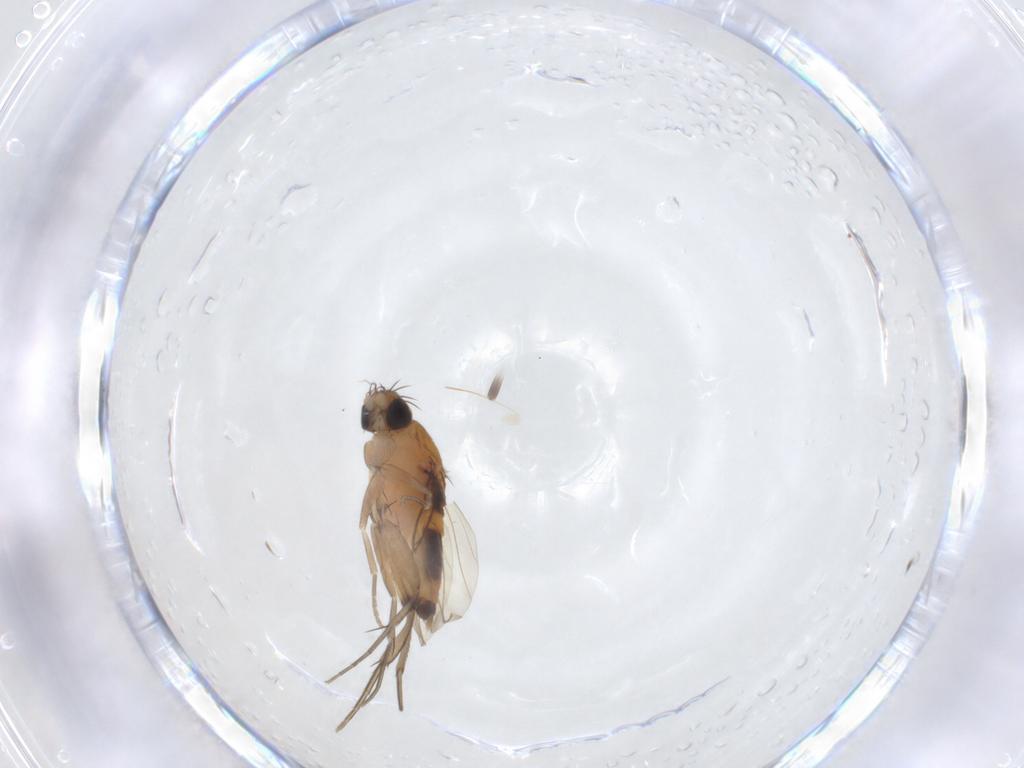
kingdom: Animalia
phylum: Arthropoda
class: Insecta
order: Diptera
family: Phoridae
